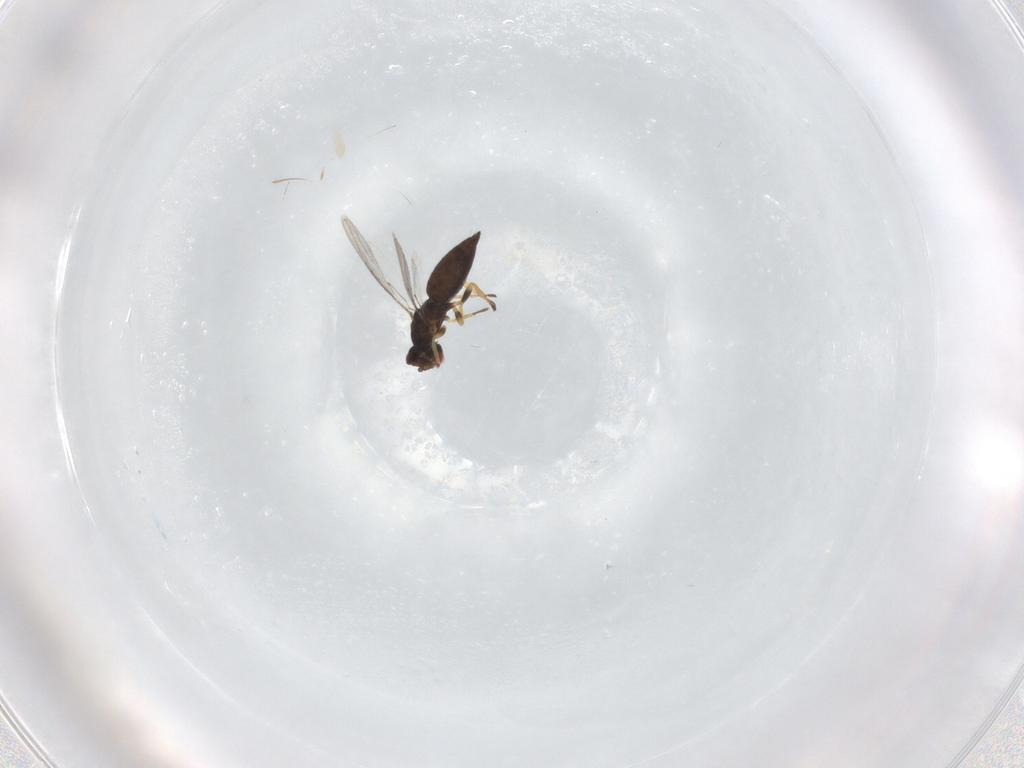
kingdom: Animalia
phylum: Arthropoda
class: Insecta
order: Hymenoptera
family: Eulophidae
